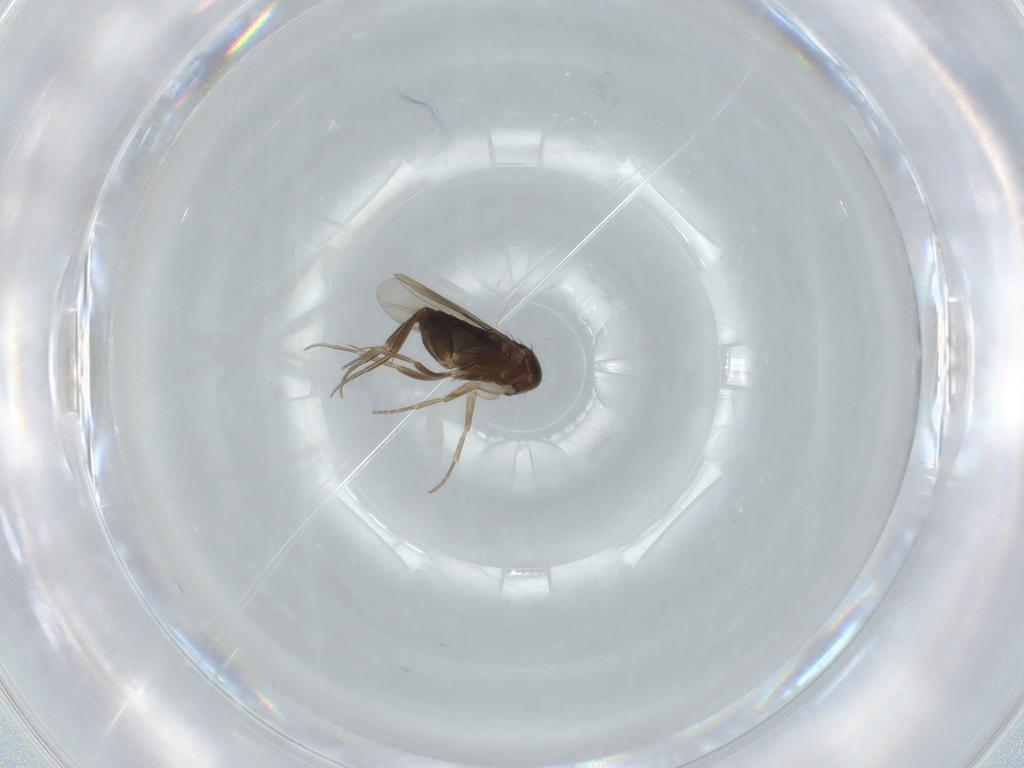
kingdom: Animalia
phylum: Arthropoda
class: Insecta
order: Diptera
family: Phoridae
